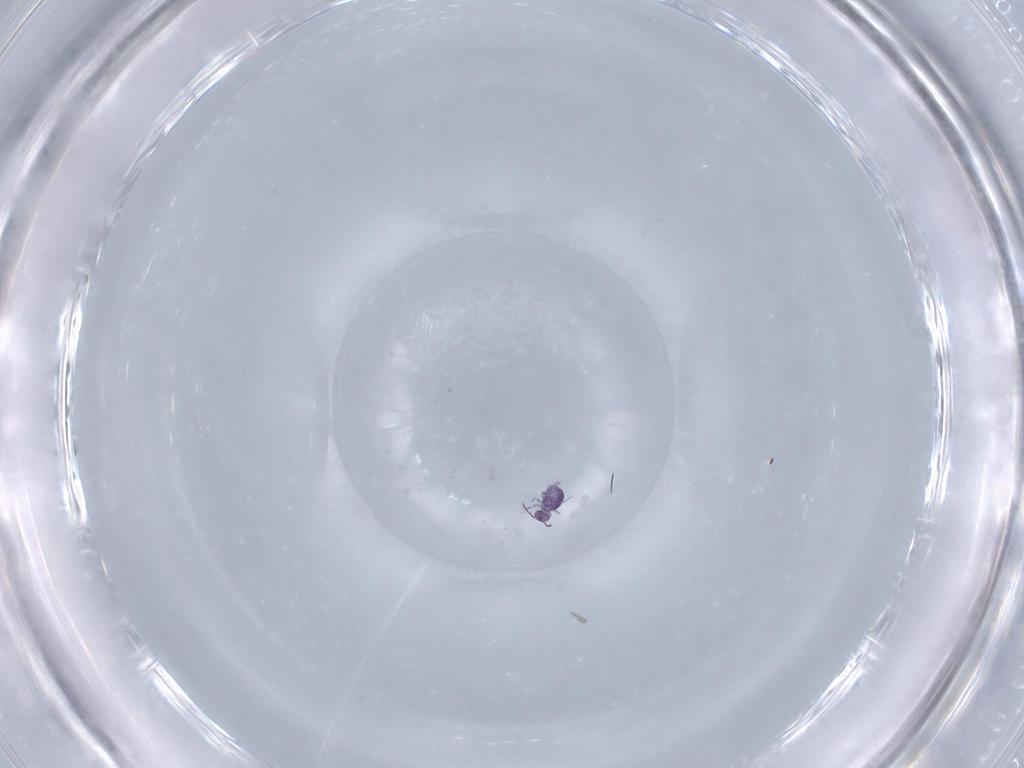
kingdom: Animalia
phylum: Arthropoda
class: Collembola
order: Symphypleona
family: Sminthurididae
